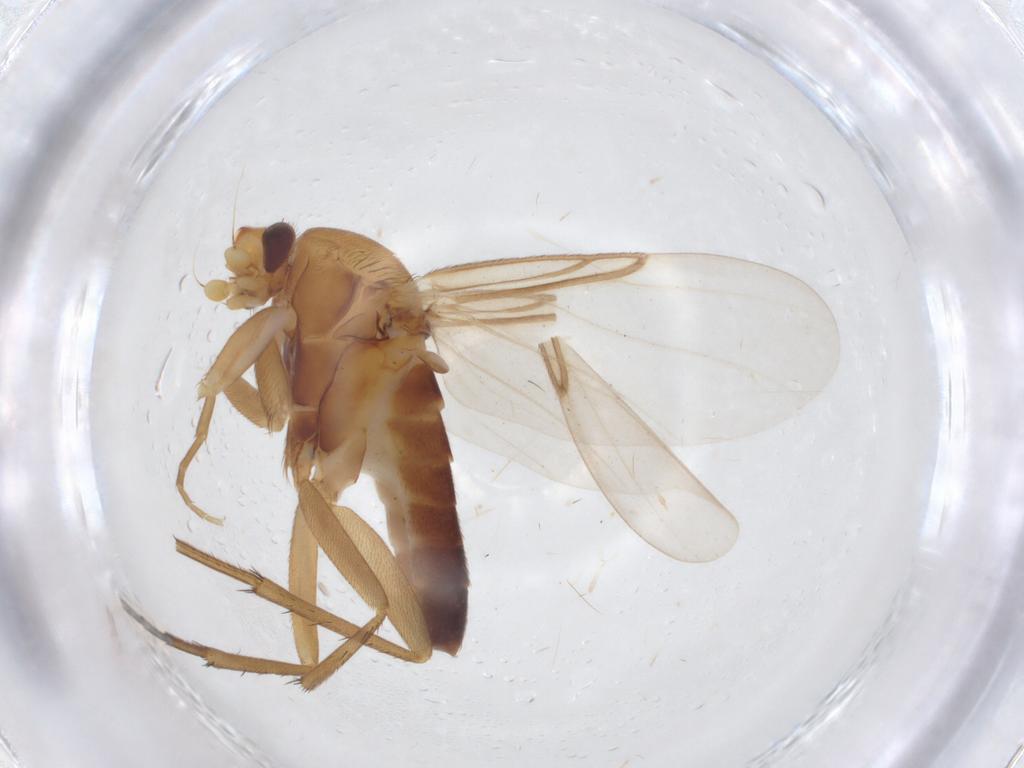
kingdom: Animalia
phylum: Arthropoda
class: Insecta
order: Diptera
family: Phoridae
